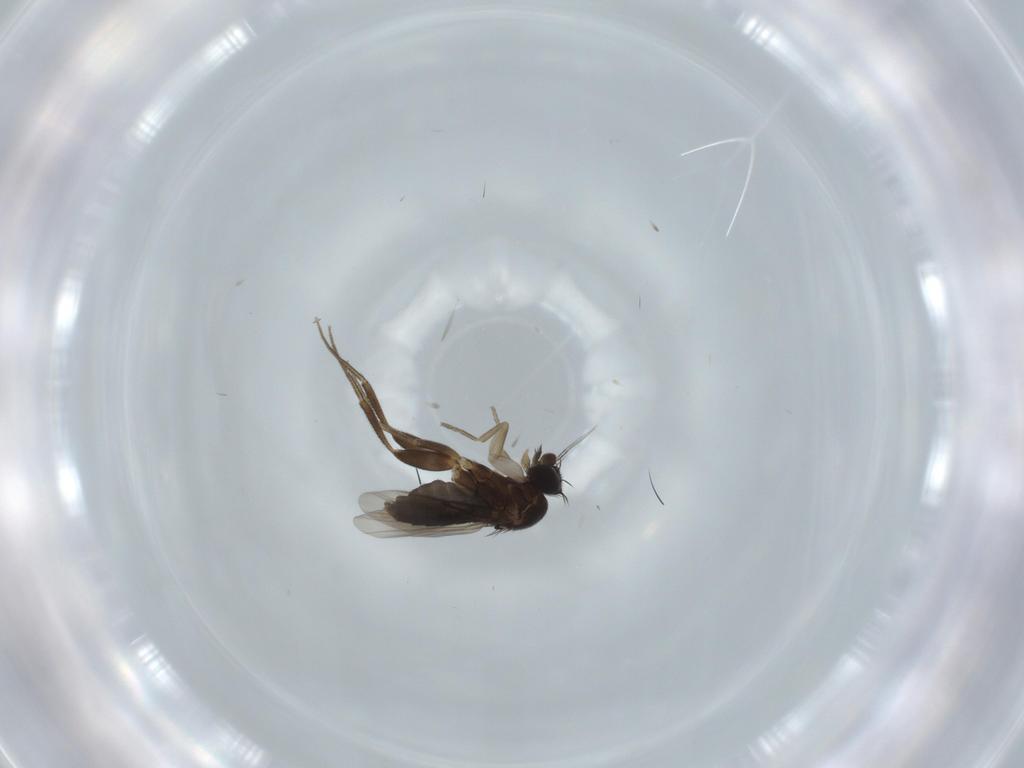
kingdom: Animalia
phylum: Arthropoda
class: Insecta
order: Diptera
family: Phoridae
